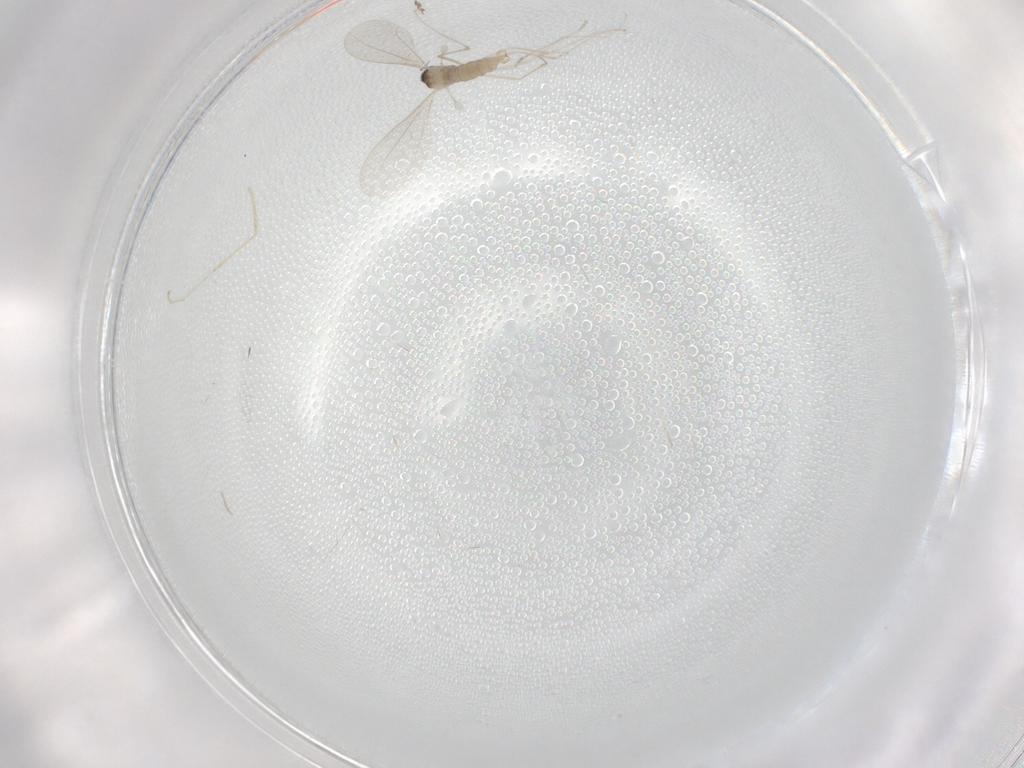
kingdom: Animalia
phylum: Arthropoda
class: Insecta
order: Diptera
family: Cecidomyiidae
